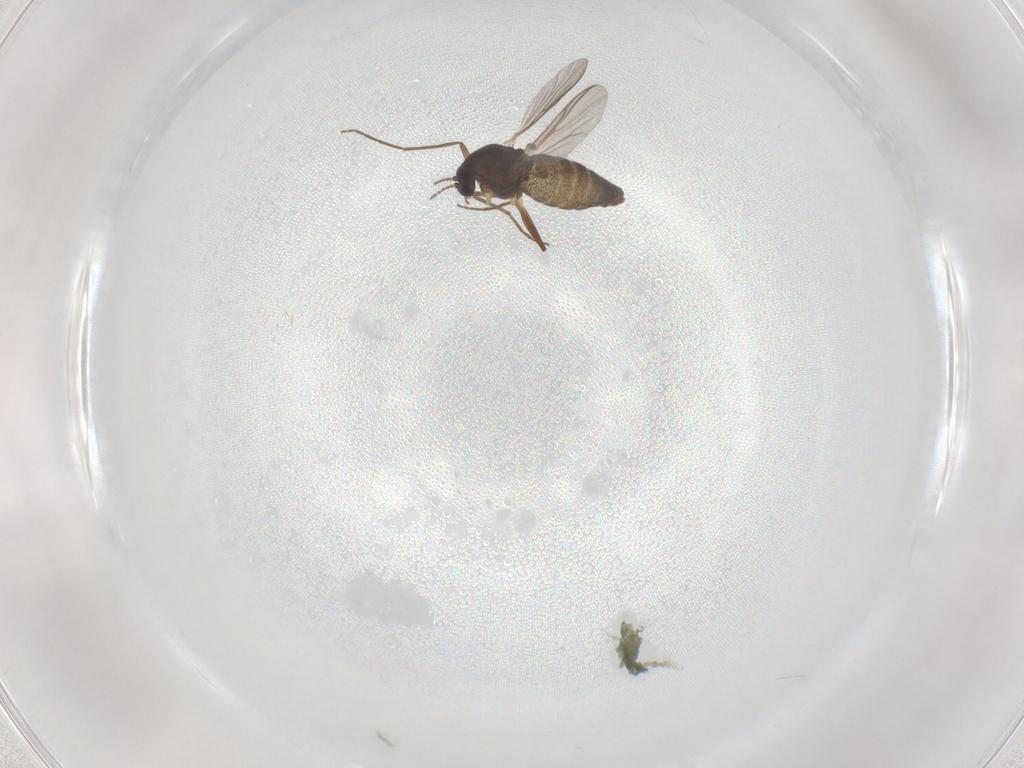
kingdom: Animalia
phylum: Arthropoda
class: Insecta
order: Diptera
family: Chironomidae
